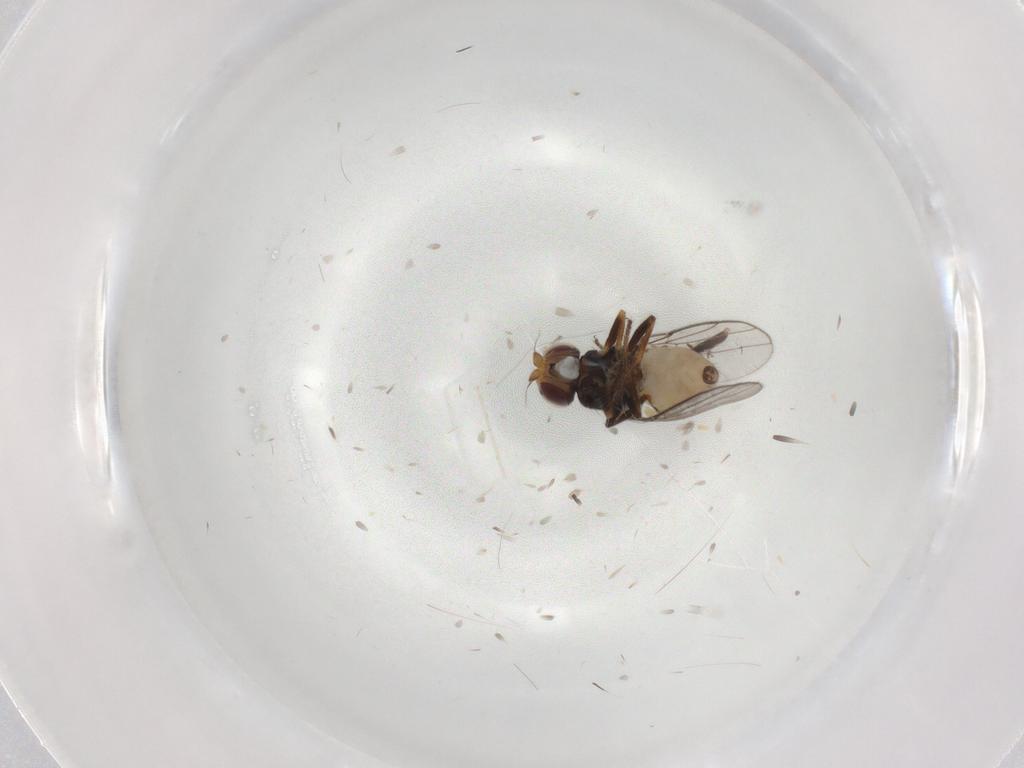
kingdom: Animalia
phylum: Arthropoda
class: Insecta
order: Diptera
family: Chloropidae
